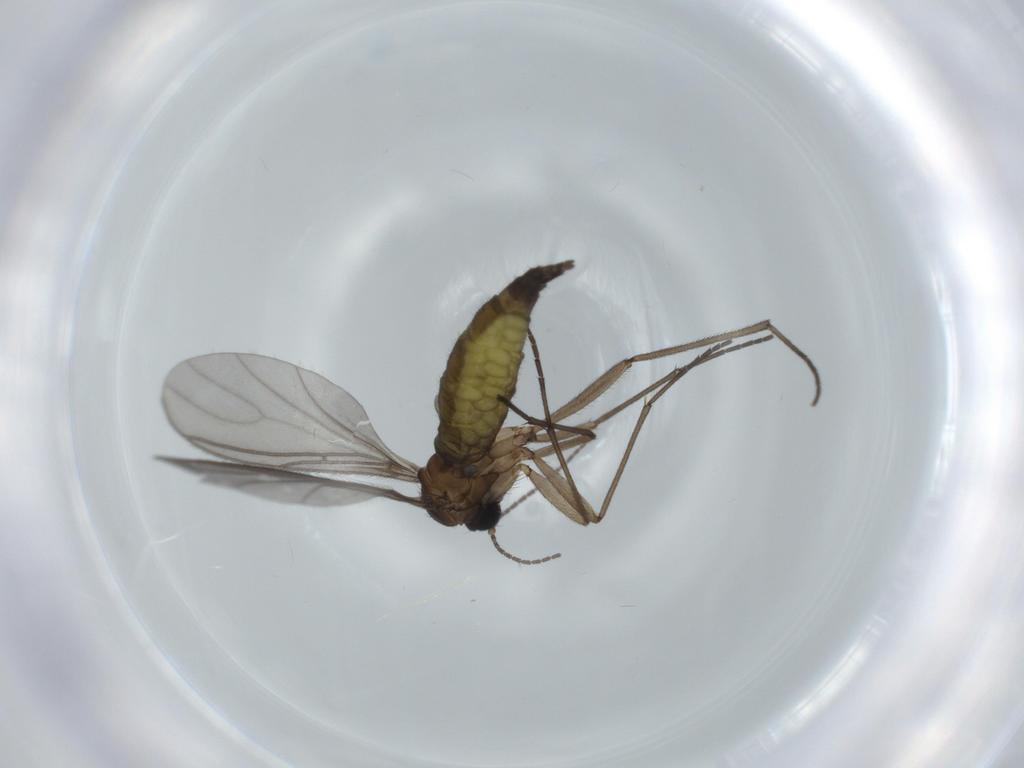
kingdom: Animalia
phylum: Arthropoda
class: Insecta
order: Diptera
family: Sciaridae
